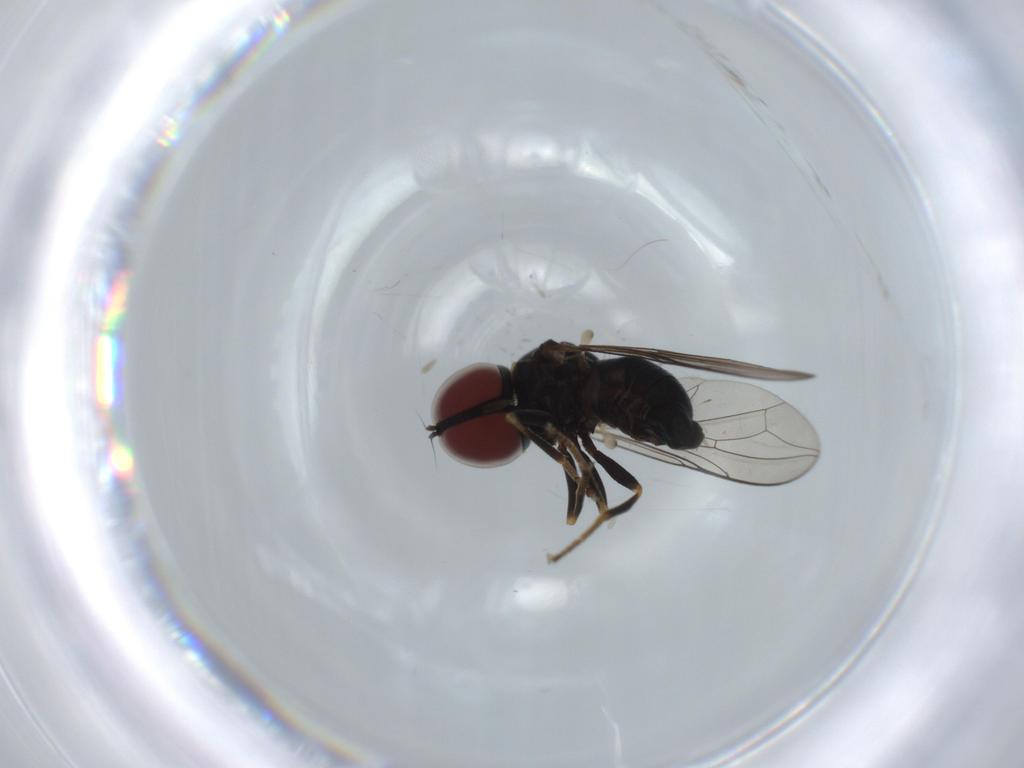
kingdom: Animalia
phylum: Arthropoda
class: Insecta
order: Diptera
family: Pipunculidae
